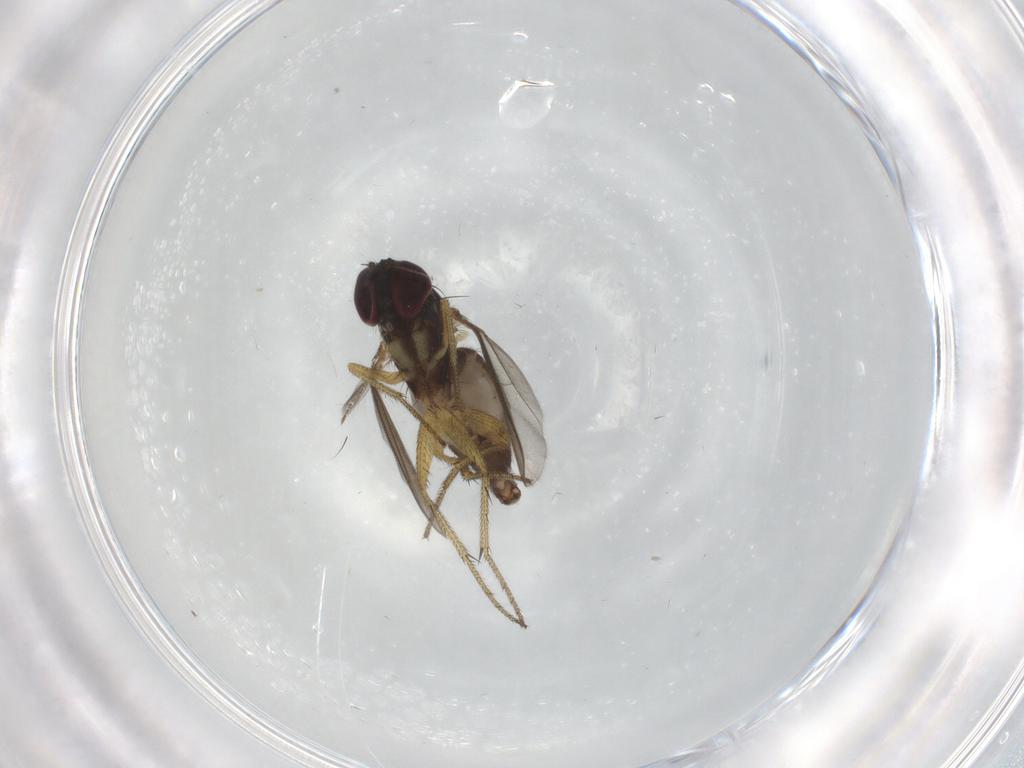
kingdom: Animalia
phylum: Arthropoda
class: Insecta
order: Diptera
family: Ceratopogonidae
